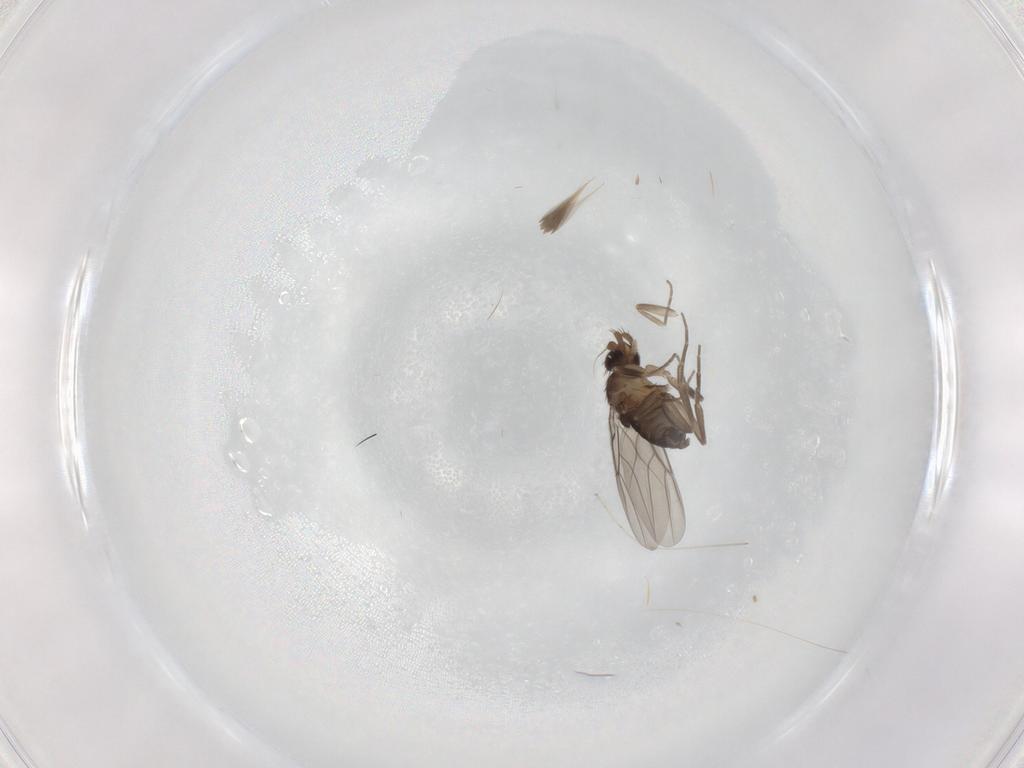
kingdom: Animalia
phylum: Arthropoda
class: Insecta
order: Diptera
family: Phoridae
